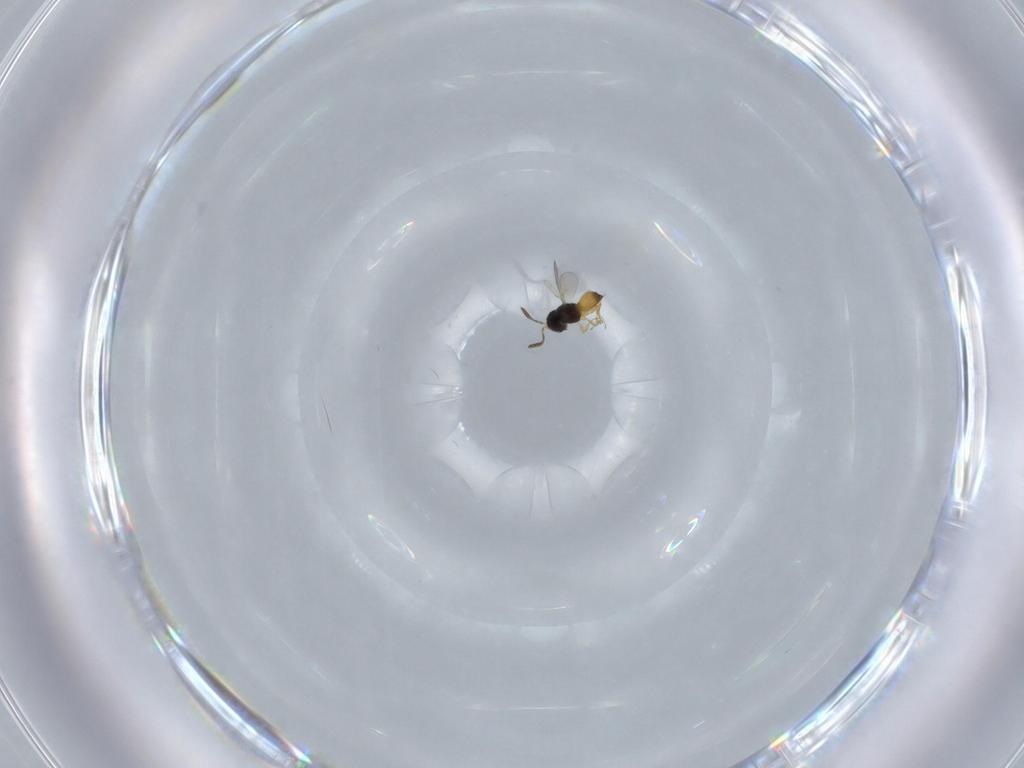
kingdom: Animalia
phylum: Arthropoda
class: Insecta
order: Hymenoptera
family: Scelionidae
